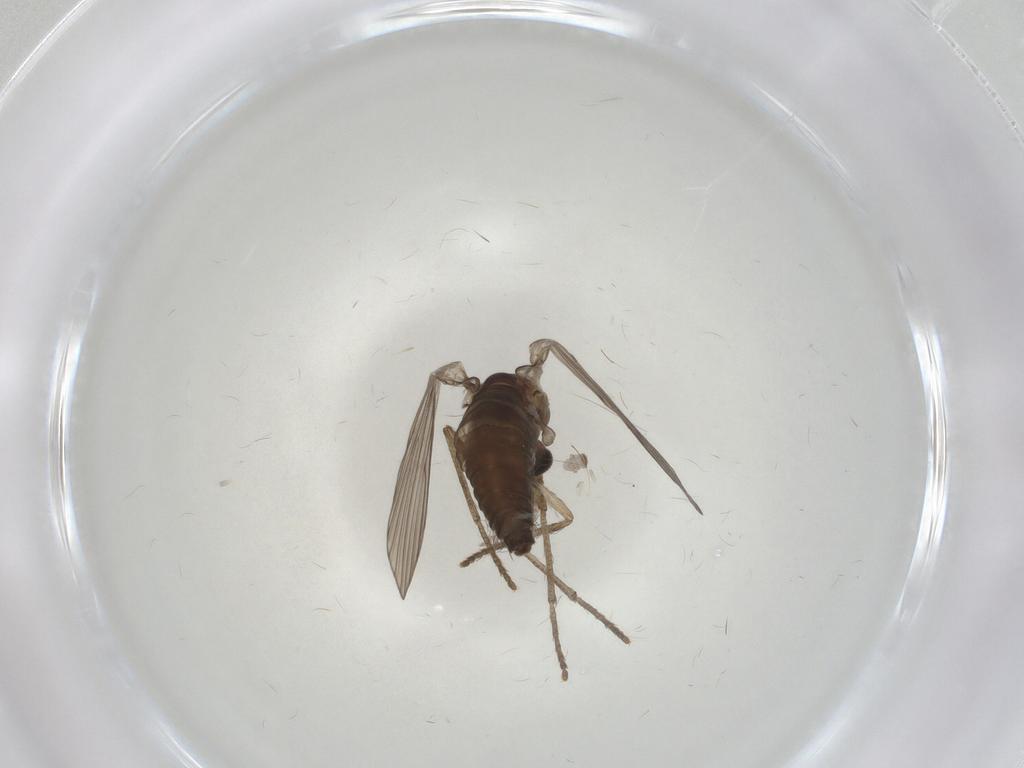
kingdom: Animalia
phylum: Arthropoda
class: Insecta
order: Diptera
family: Psychodidae
